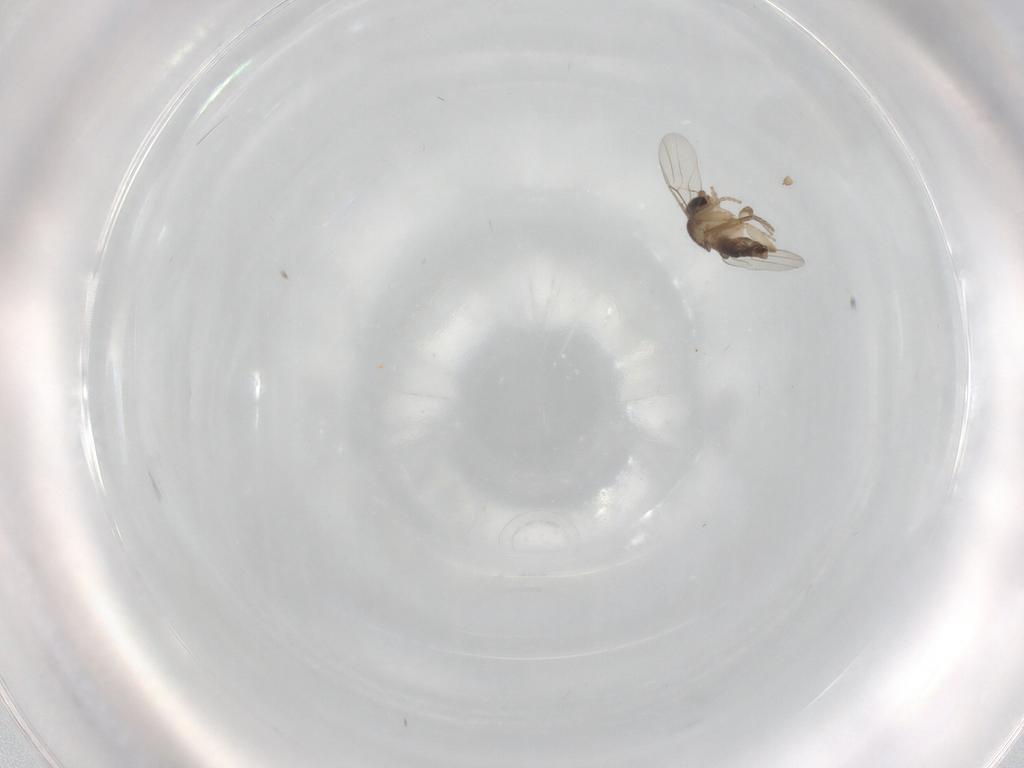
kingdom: Animalia
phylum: Arthropoda
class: Insecta
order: Diptera
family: Phoridae
